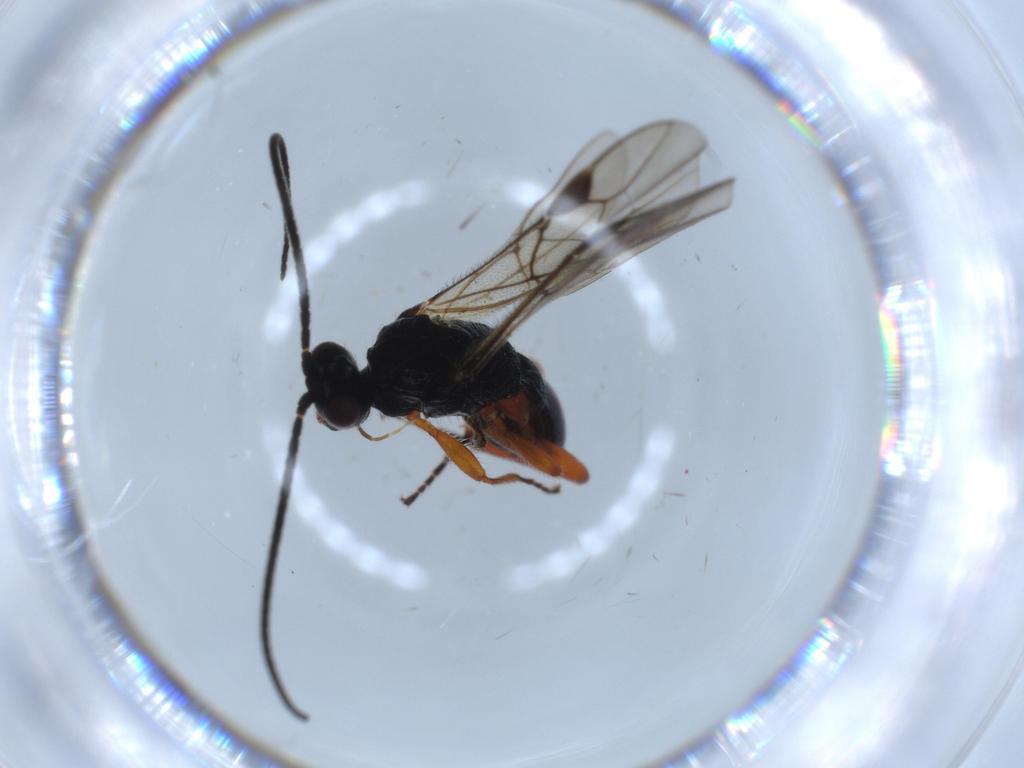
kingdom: Animalia
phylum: Arthropoda
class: Insecta
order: Hymenoptera
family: Braconidae
